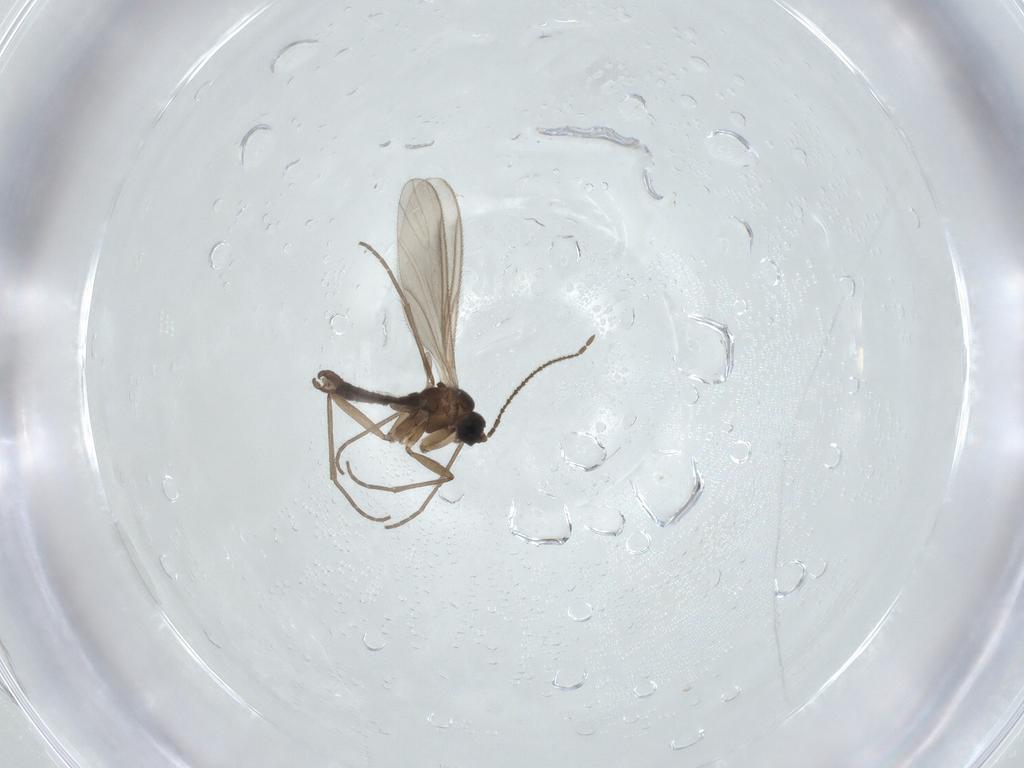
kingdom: Animalia
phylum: Arthropoda
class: Insecta
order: Diptera
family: Sciaridae
